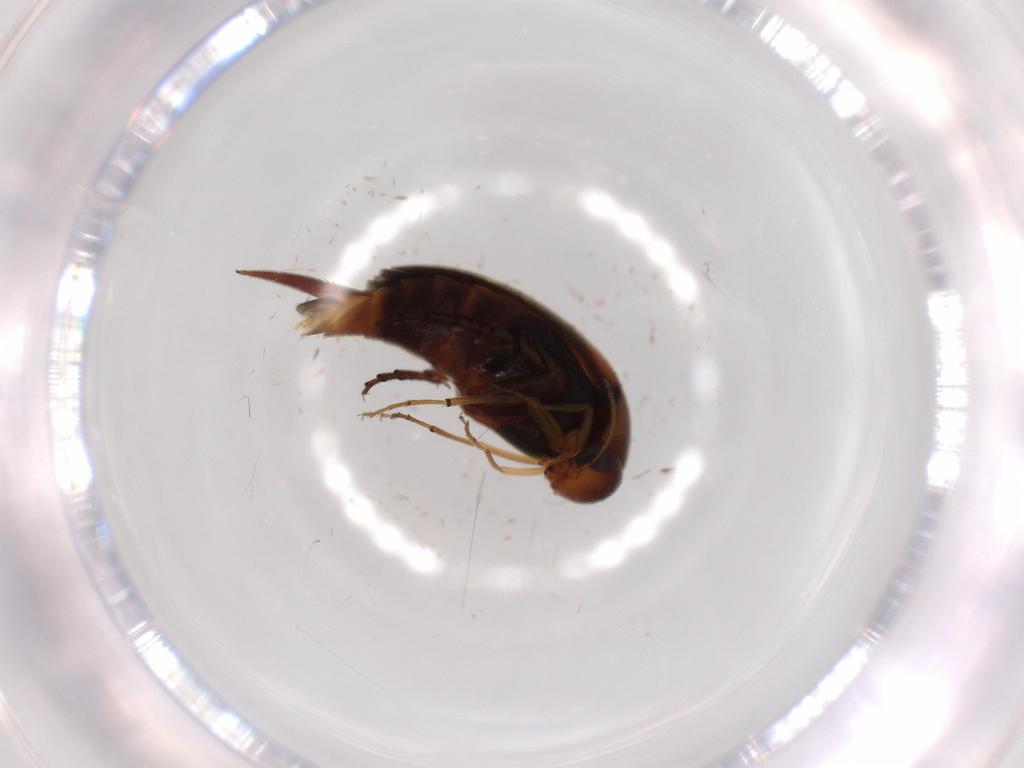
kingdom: Animalia
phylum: Arthropoda
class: Insecta
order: Coleoptera
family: Mordellidae
